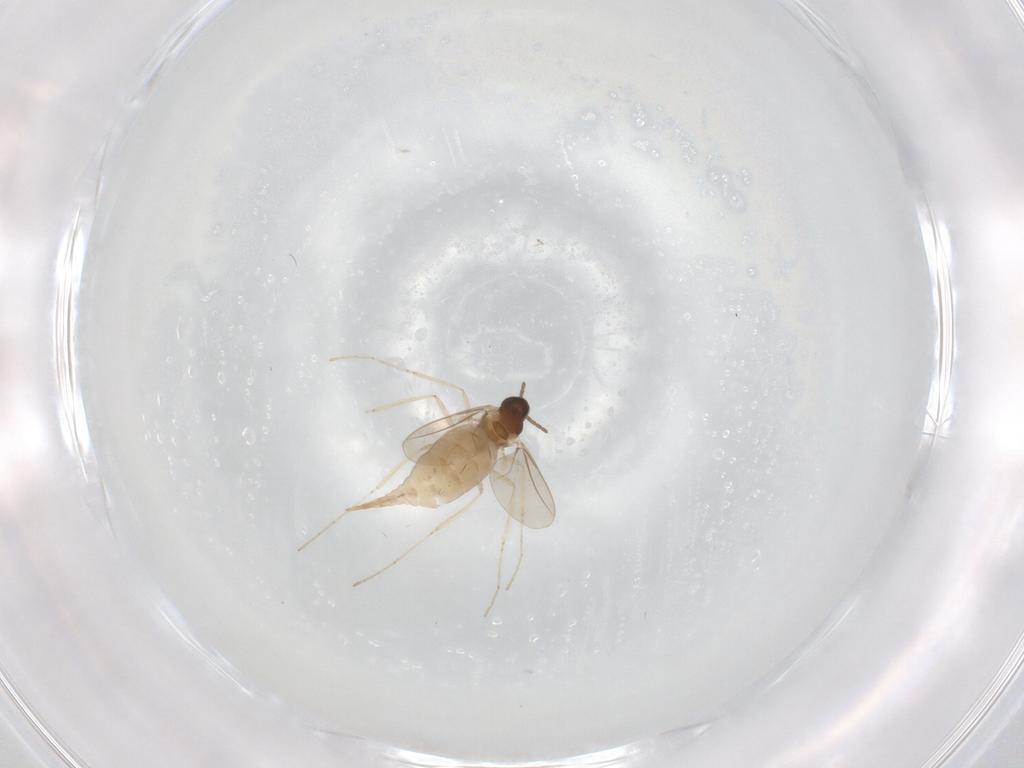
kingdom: Animalia
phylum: Arthropoda
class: Insecta
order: Diptera
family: Cecidomyiidae
